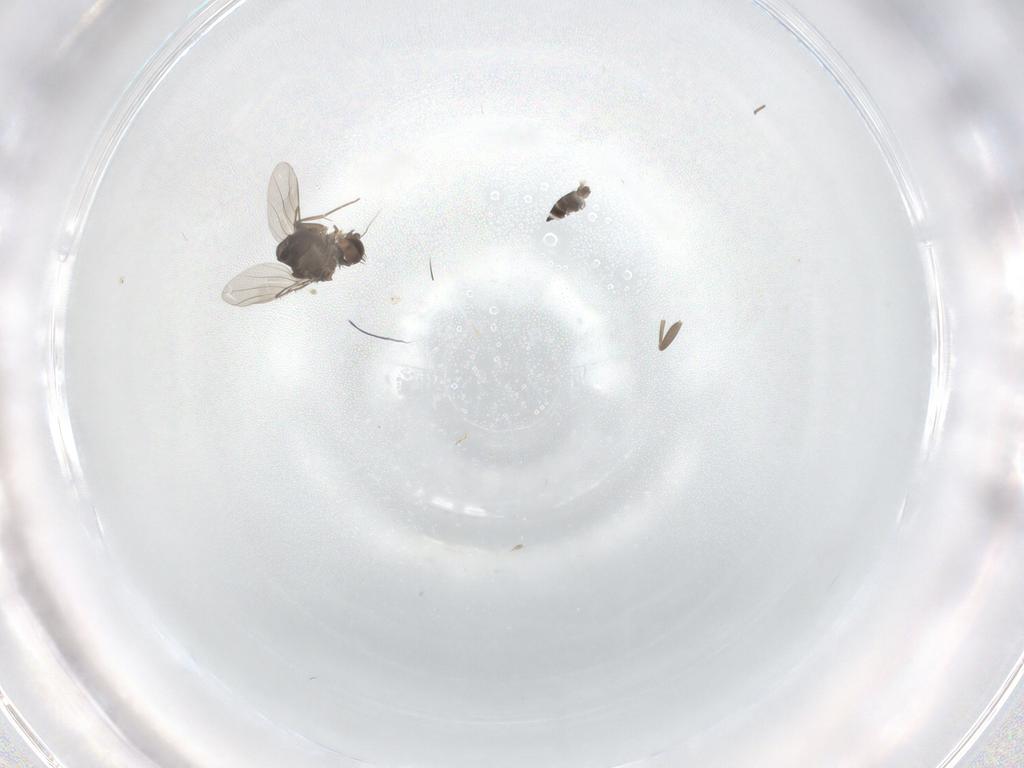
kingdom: Animalia
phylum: Arthropoda
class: Insecta
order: Diptera
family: Phoridae
